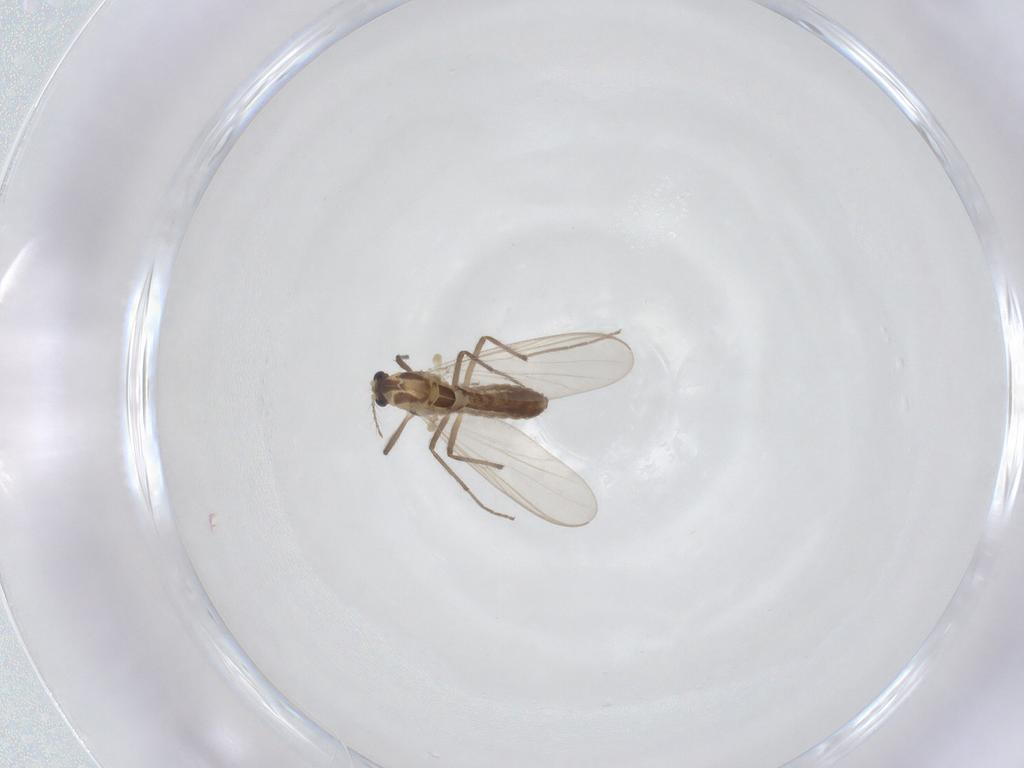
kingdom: Animalia
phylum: Arthropoda
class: Insecta
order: Diptera
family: Chironomidae
